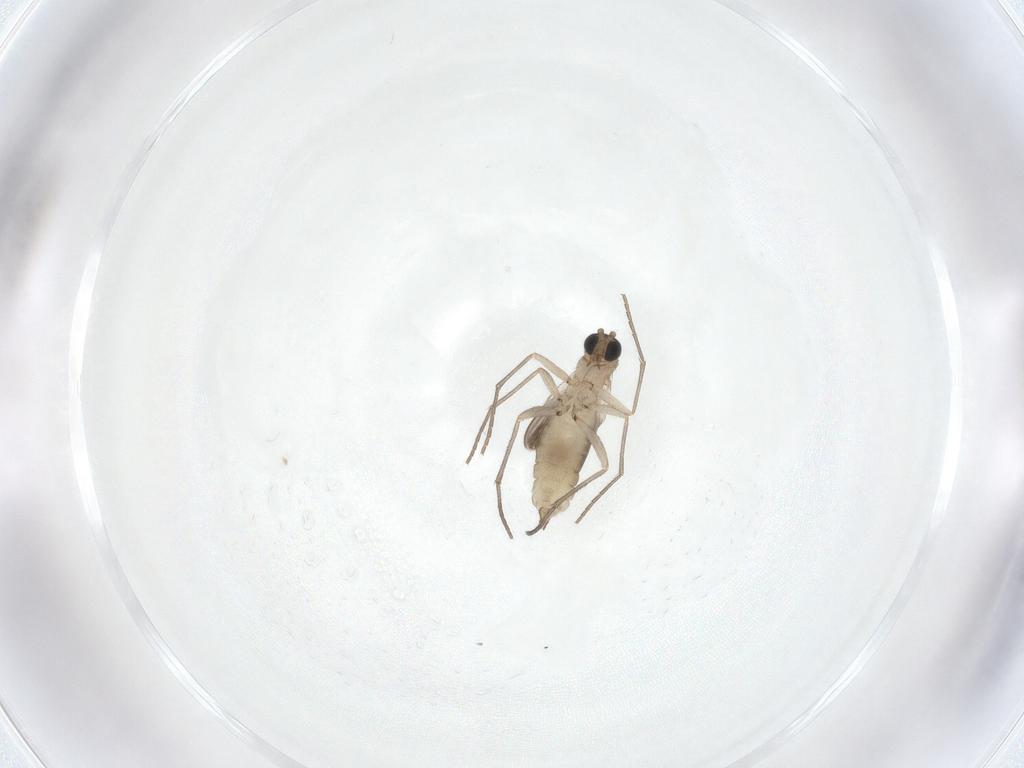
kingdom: Animalia
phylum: Arthropoda
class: Insecta
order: Diptera
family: Sciaridae
